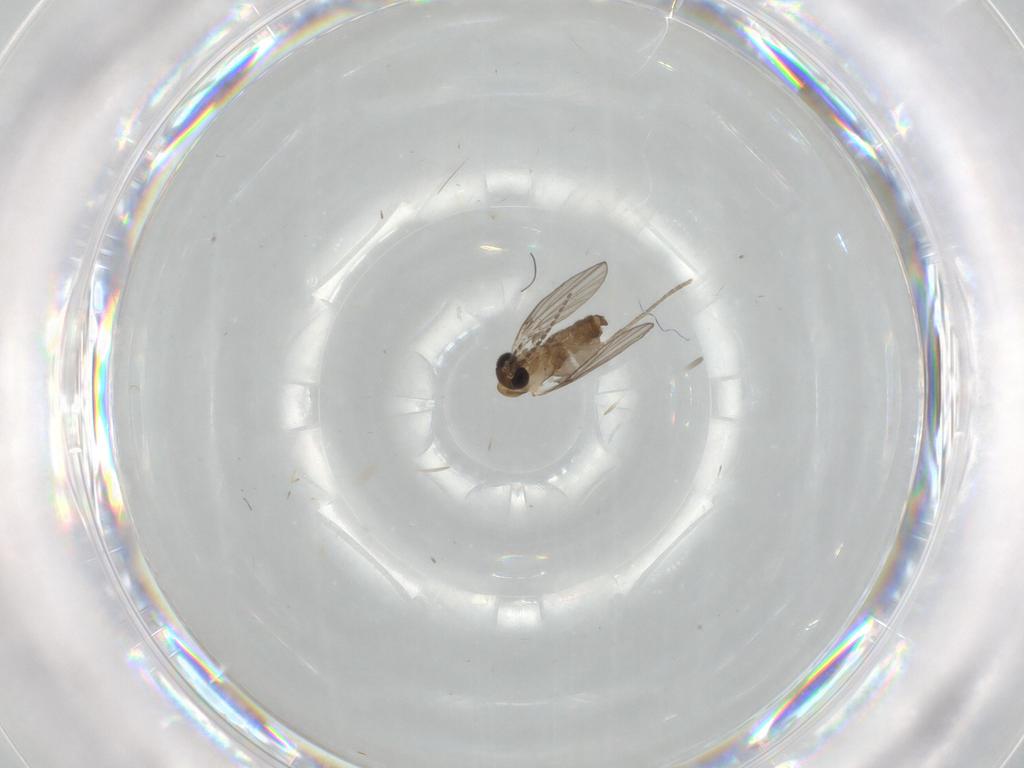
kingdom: Animalia
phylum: Arthropoda
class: Insecta
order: Diptera
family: Psychodidae
